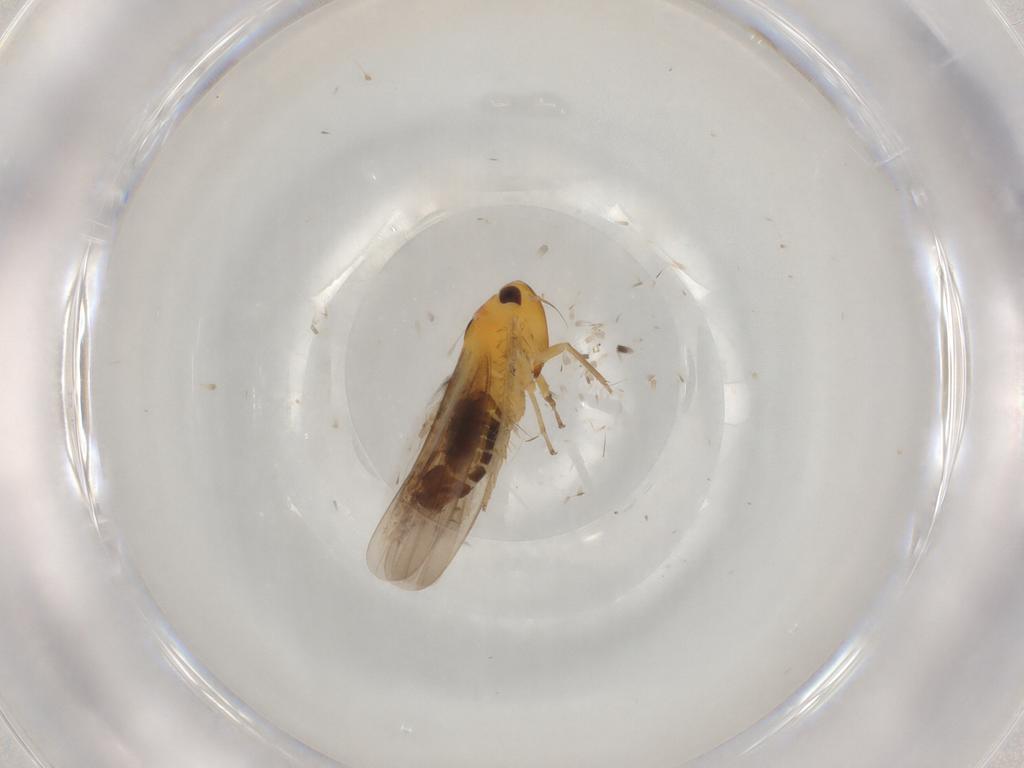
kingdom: Animalia
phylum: Arthropoda
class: Insecta
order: Hemiptera
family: Cicadellidae
